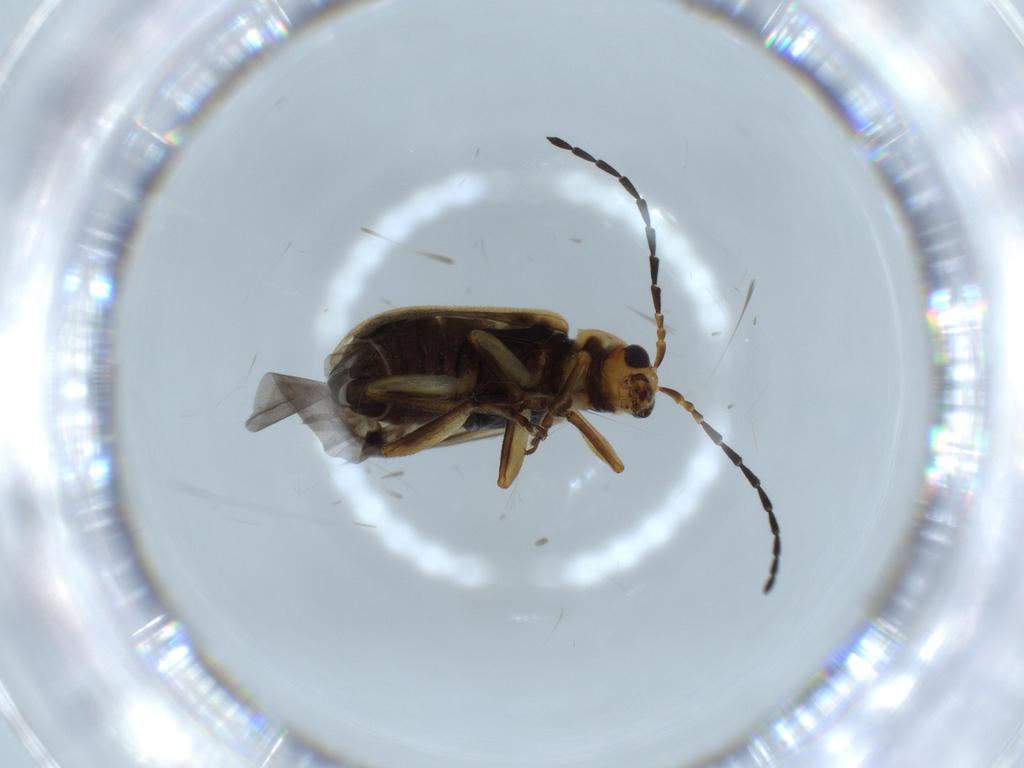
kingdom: Animalia
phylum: Arthropoda
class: Insecta
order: Coleoptera
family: Chrysomelidae
